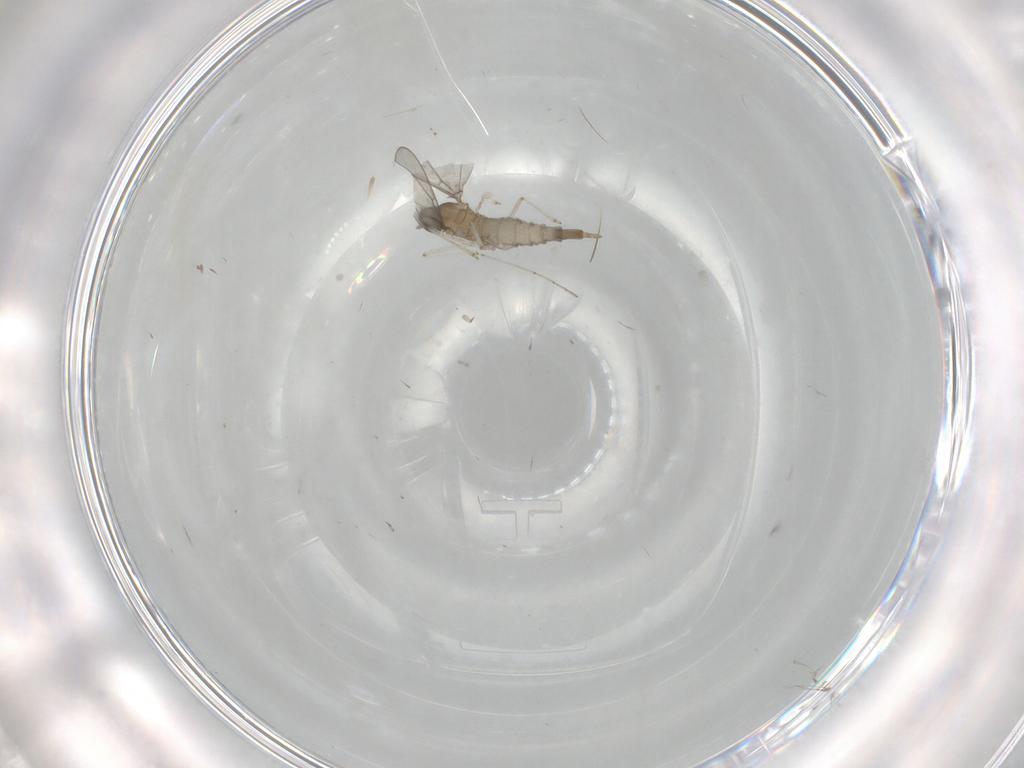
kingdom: Animalia
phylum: Arthropoda
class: Insecta
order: Diptera
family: Cecidomyiidae
